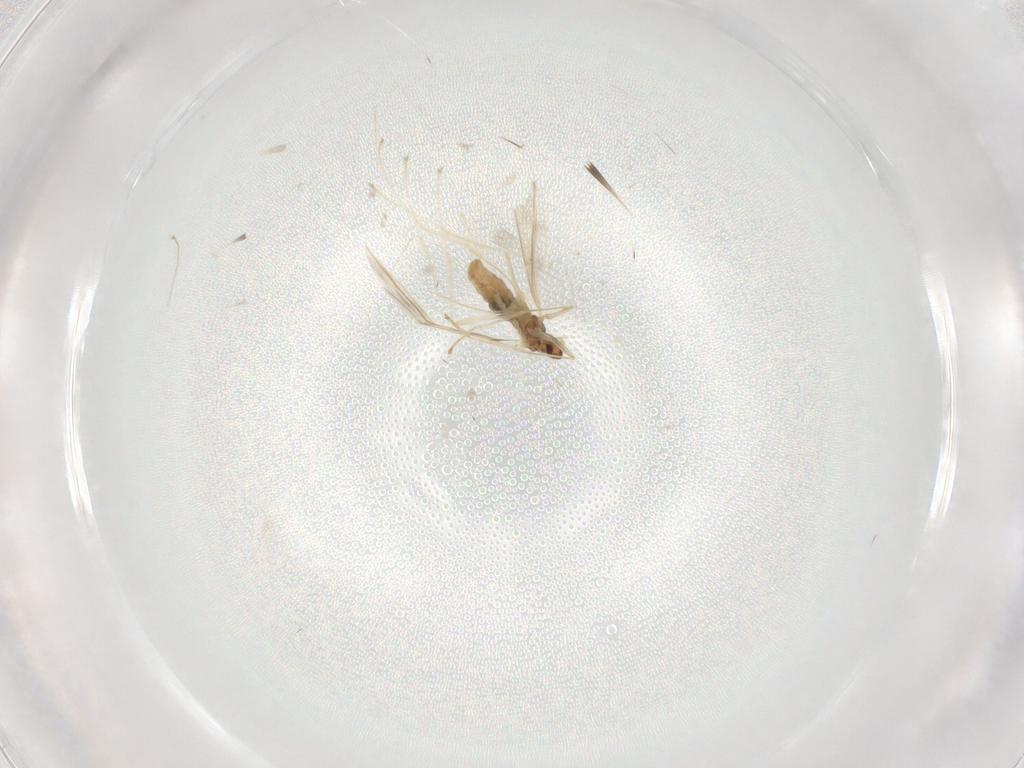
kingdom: Animalia
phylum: Arthropoda
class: Insecta
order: Diptera
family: Cecidomyiidae
